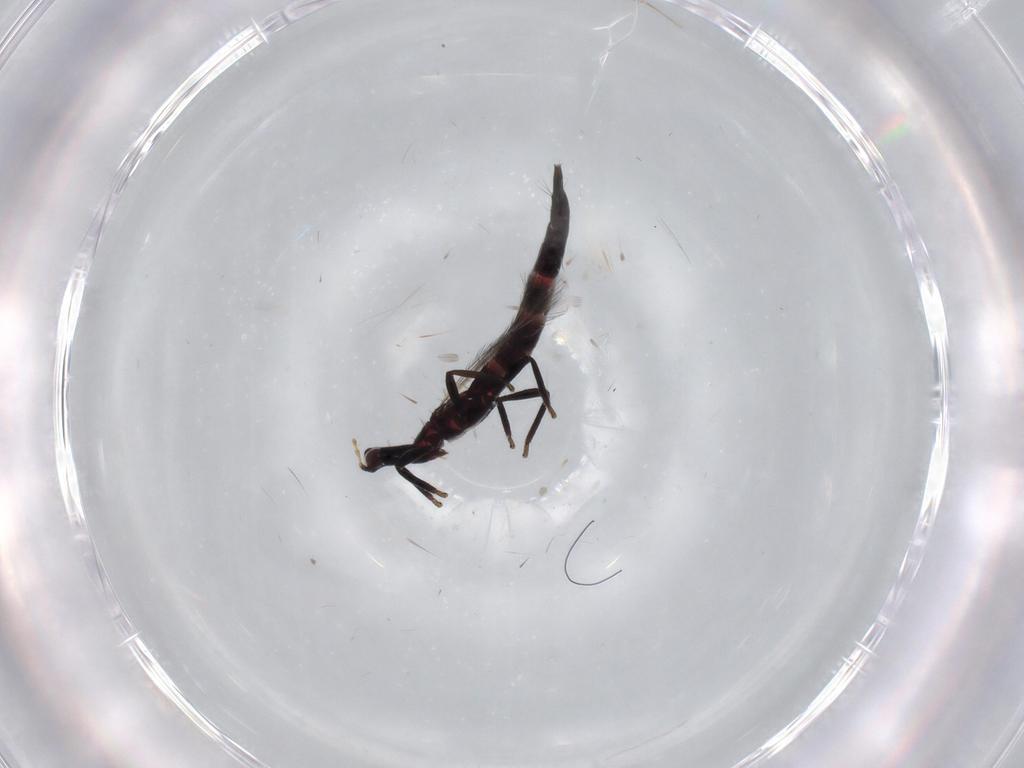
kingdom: Animalia
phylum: Arthropoda
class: Insecta
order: Thysanoptera
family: Phlaeothripidae
